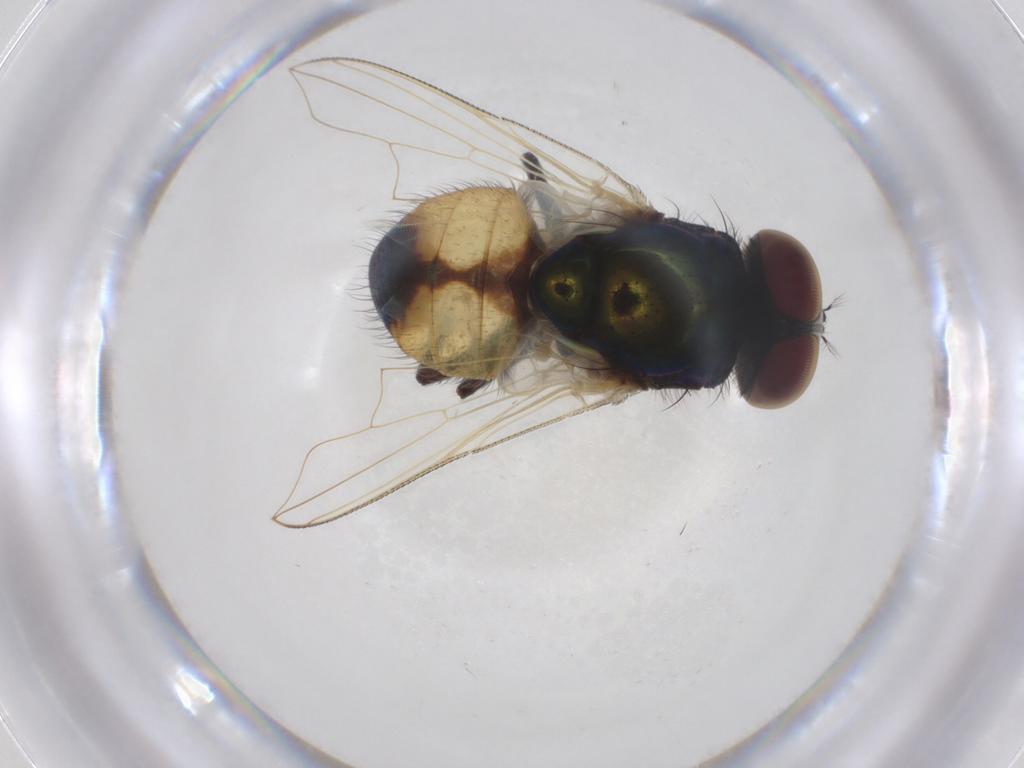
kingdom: Animalia
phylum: Arthropoda
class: Insecta
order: Diptera
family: Muscidae
